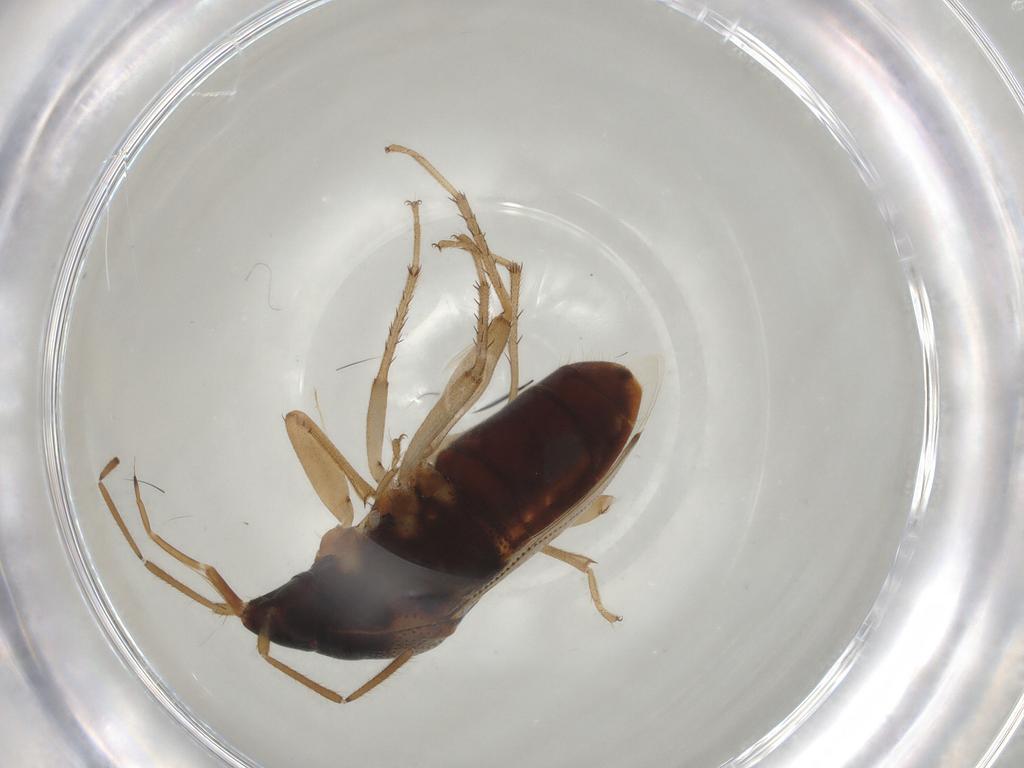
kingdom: Animalia
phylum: Arthropoda
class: Insecta
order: Hemiptera
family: Rhyparochromidae
